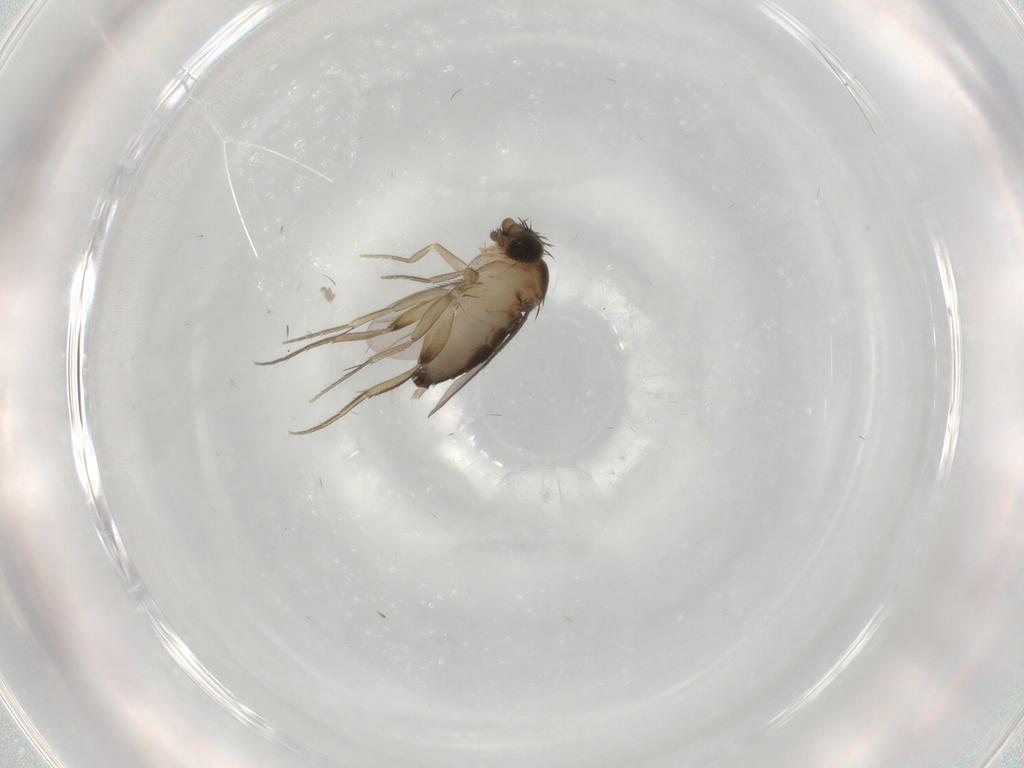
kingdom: Animalia
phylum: Arthropoda
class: Insecta
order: Diptera
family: Phoridae
